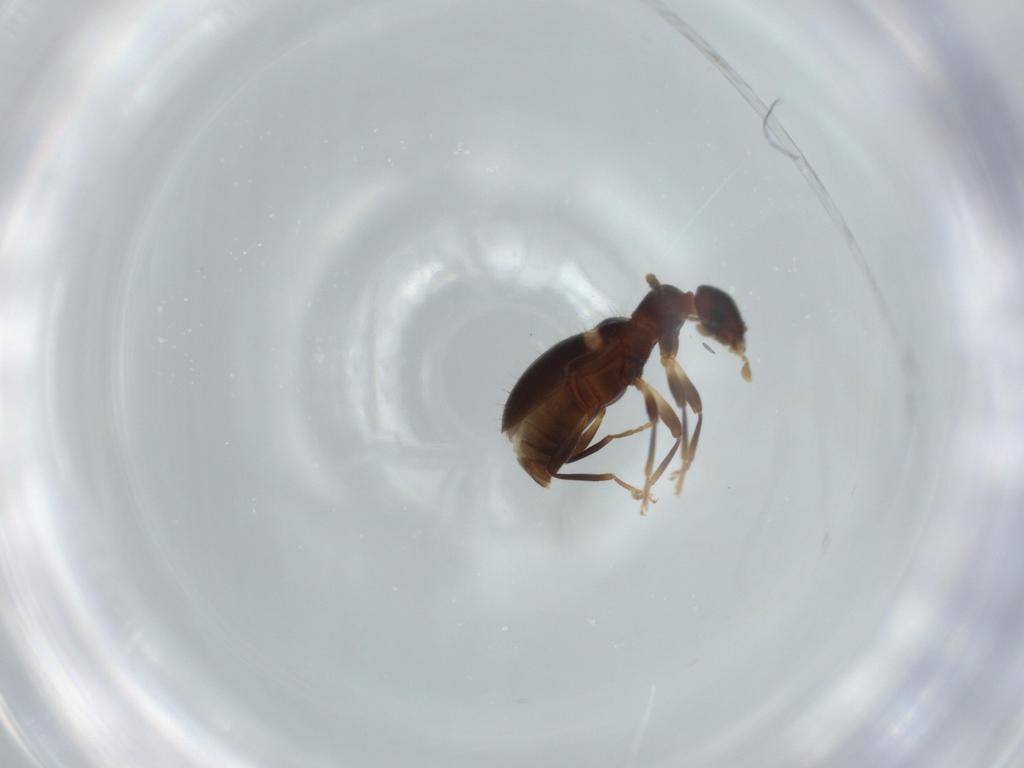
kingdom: Animalia
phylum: Arthropoda
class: Insecta
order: Coleoptera
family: Anthicidae
